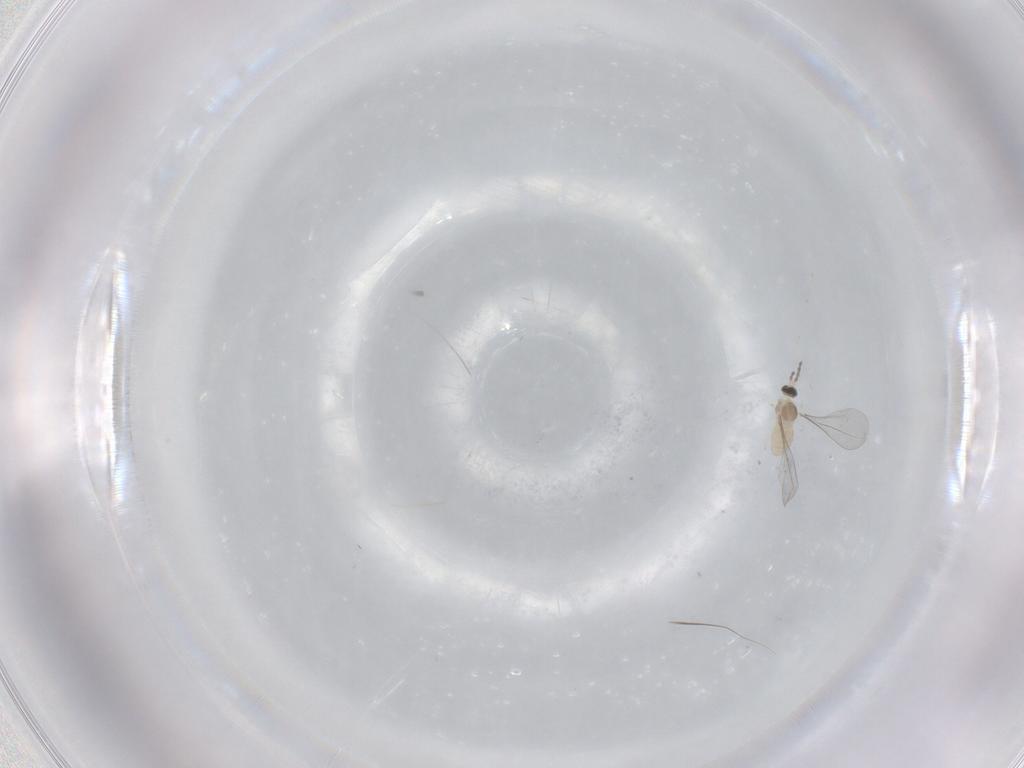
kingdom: Animalia
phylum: Arthropoda
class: Insecta
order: Diptera
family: Cecidomyiidae
